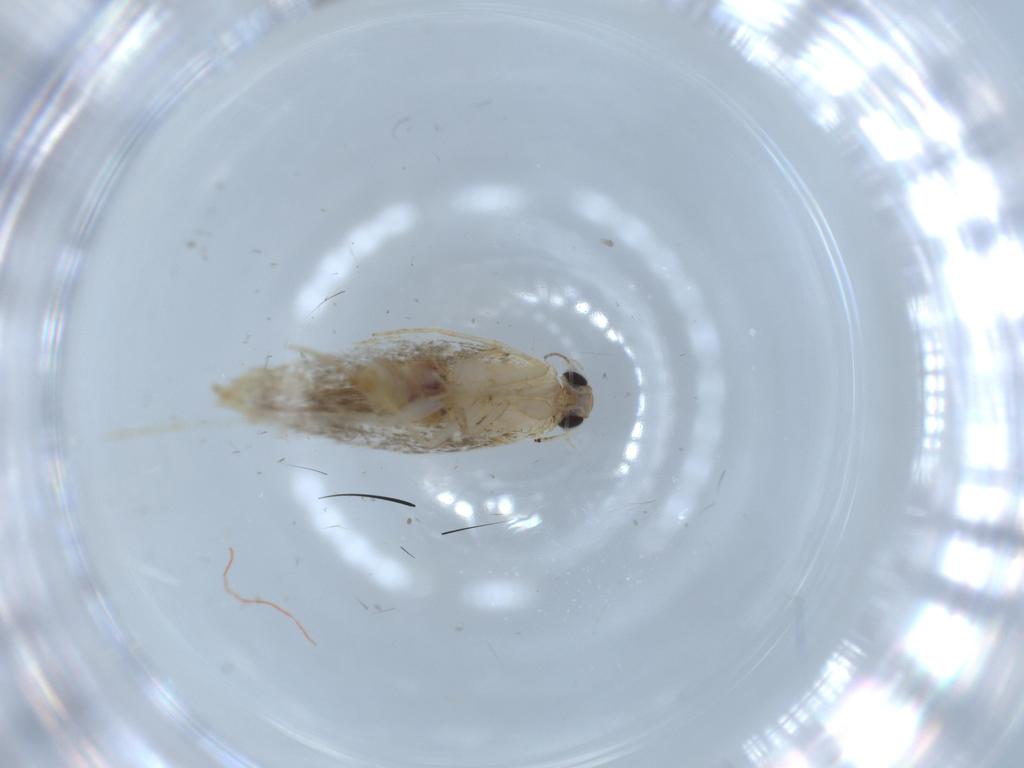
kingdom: Animalia
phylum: Arthropoda
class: Insecta
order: Lepidoptera
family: Tineidae
